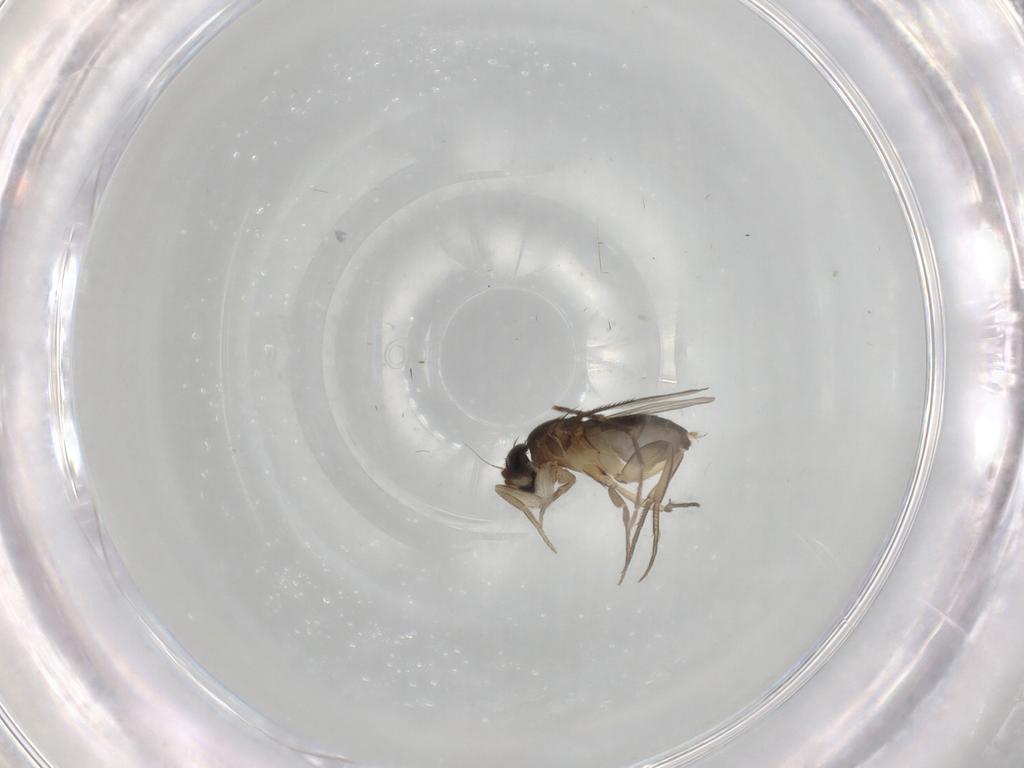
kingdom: Animalia
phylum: Arthropoda
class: Insecta
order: Diptera
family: Phoridae
